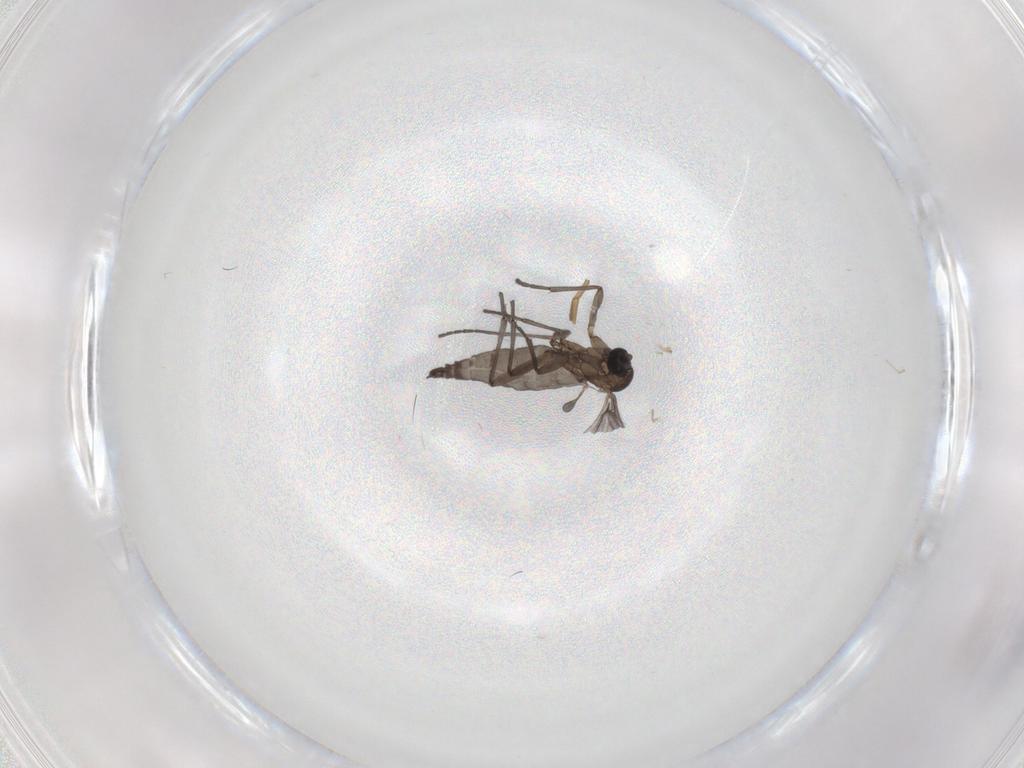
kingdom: Animalia
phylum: Arthropoda
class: Insecta
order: Diptera
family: Sciaridae
